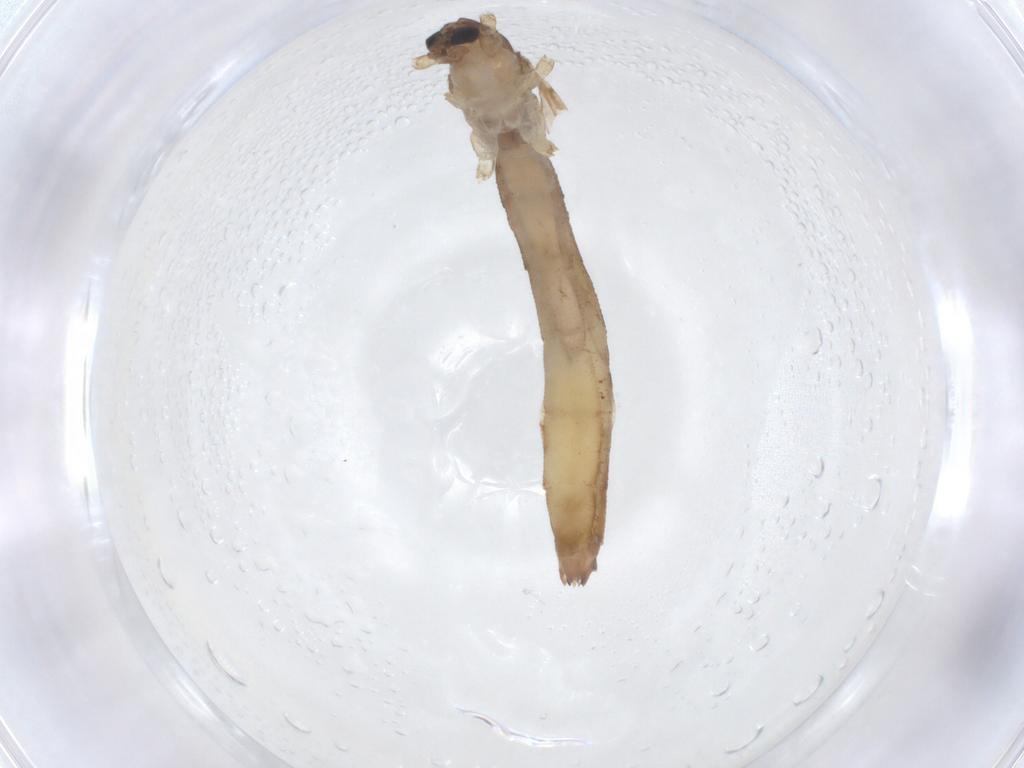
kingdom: Animalia
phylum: Arthropoda
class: Insecta
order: Diptera
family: Limoniidae
